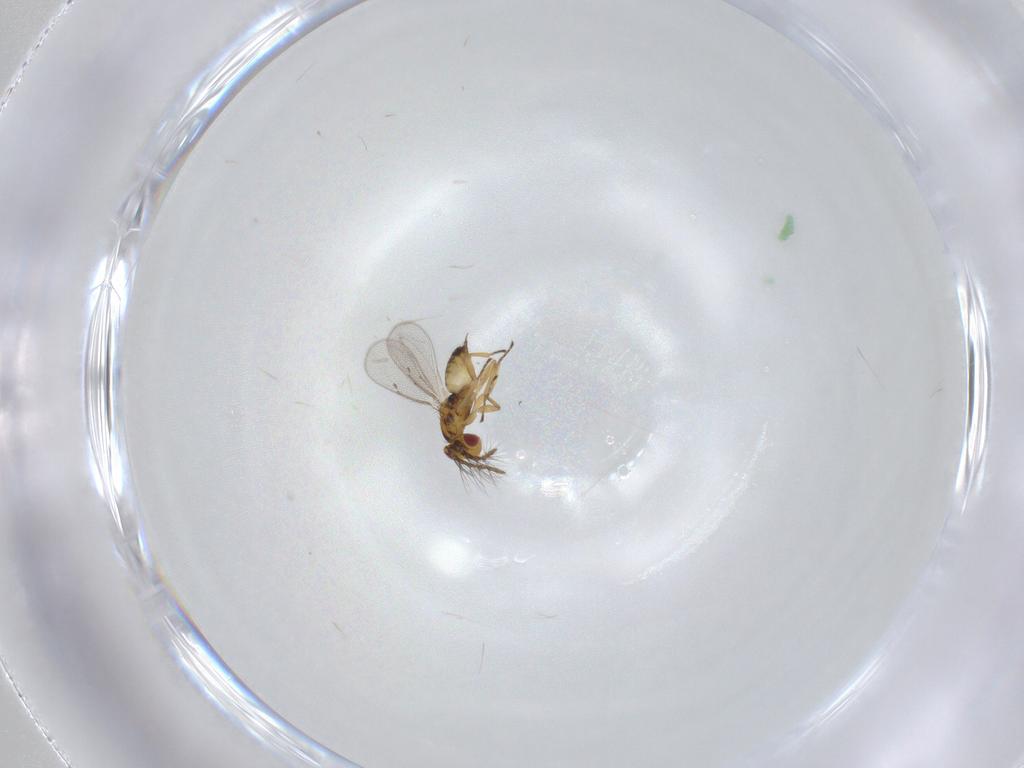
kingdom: Animalia
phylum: Arthropoda
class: Insecta
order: Hymenoptera
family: Eulophidae
